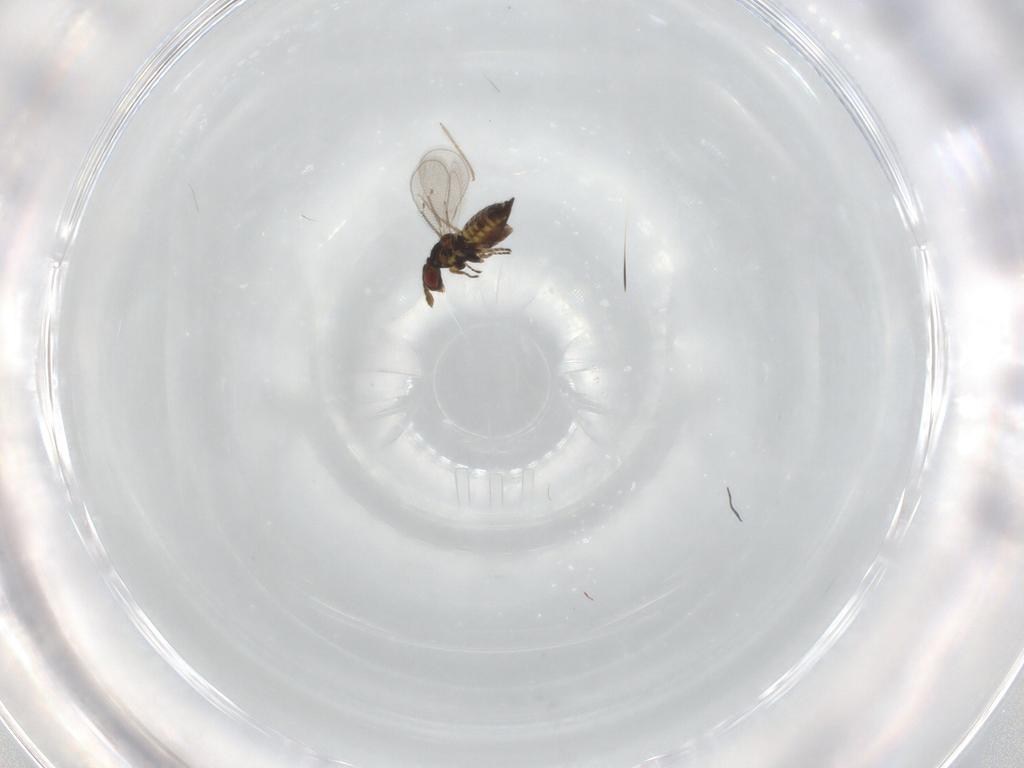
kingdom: Animalia
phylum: Arthropoda
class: Insecta
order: Hymenoptera
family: Eulophidae
